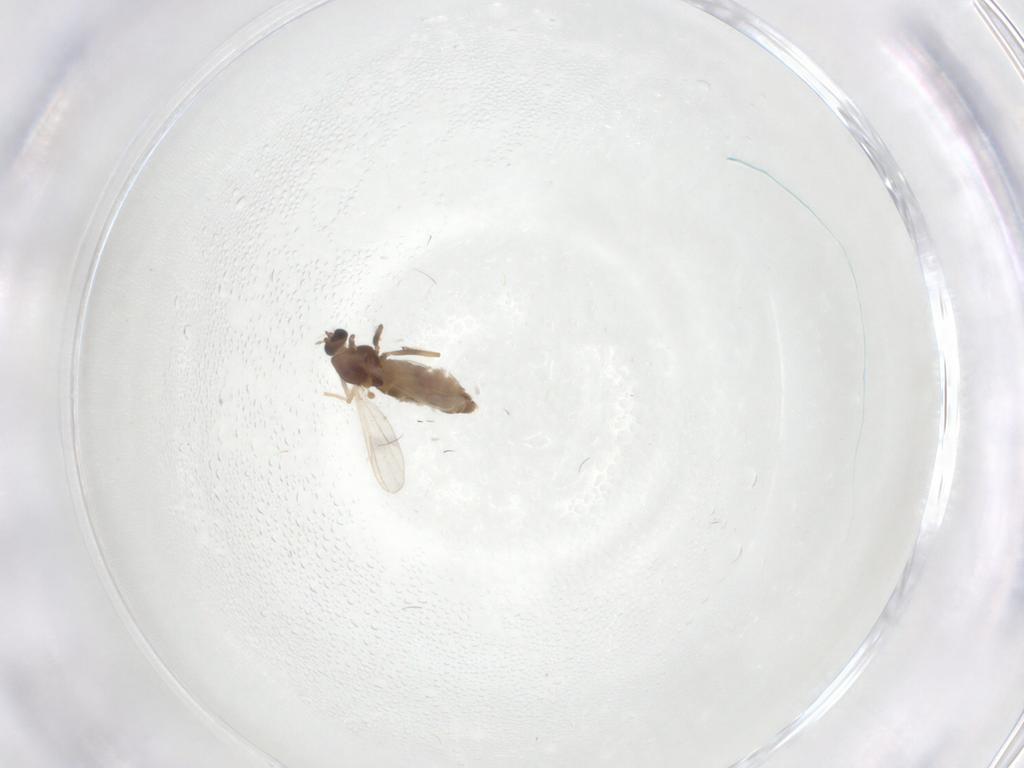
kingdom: Animalia
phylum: Arthropoda
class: Insecta
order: Diptera
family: Chironomidae
